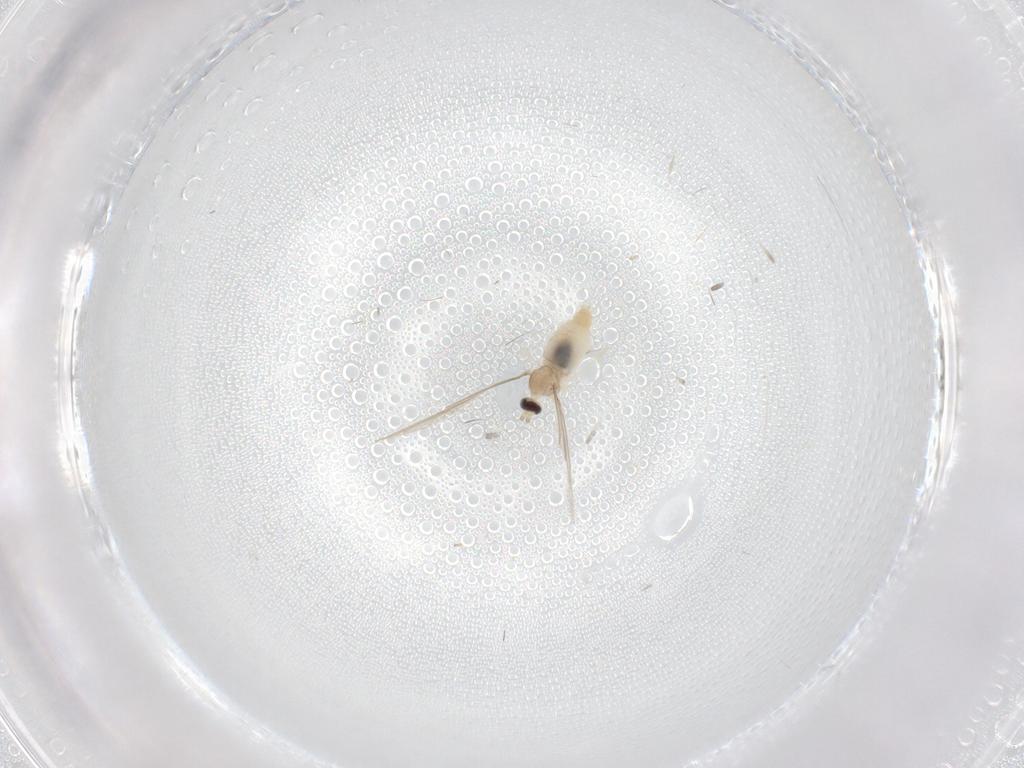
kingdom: Animalia
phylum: Arthropoda
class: Insecta
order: Diptera
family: Cecidomyiidae
